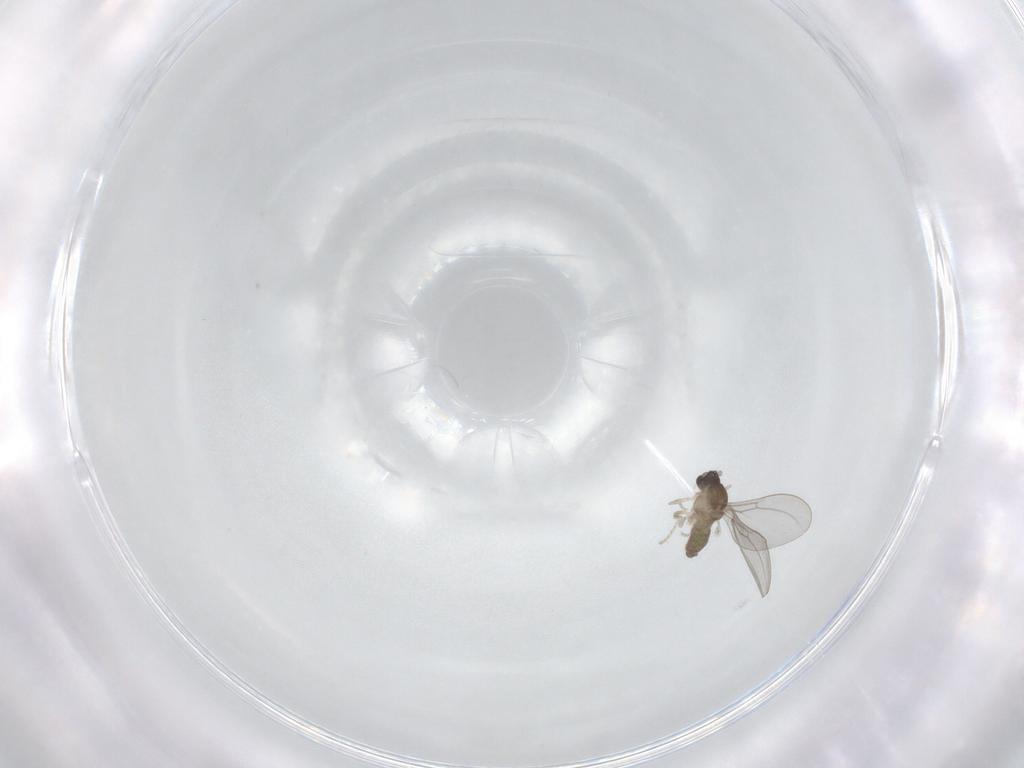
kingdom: Animalia
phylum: Arthropoda
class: Insecta
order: Diptera
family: Cecidomyiidae
